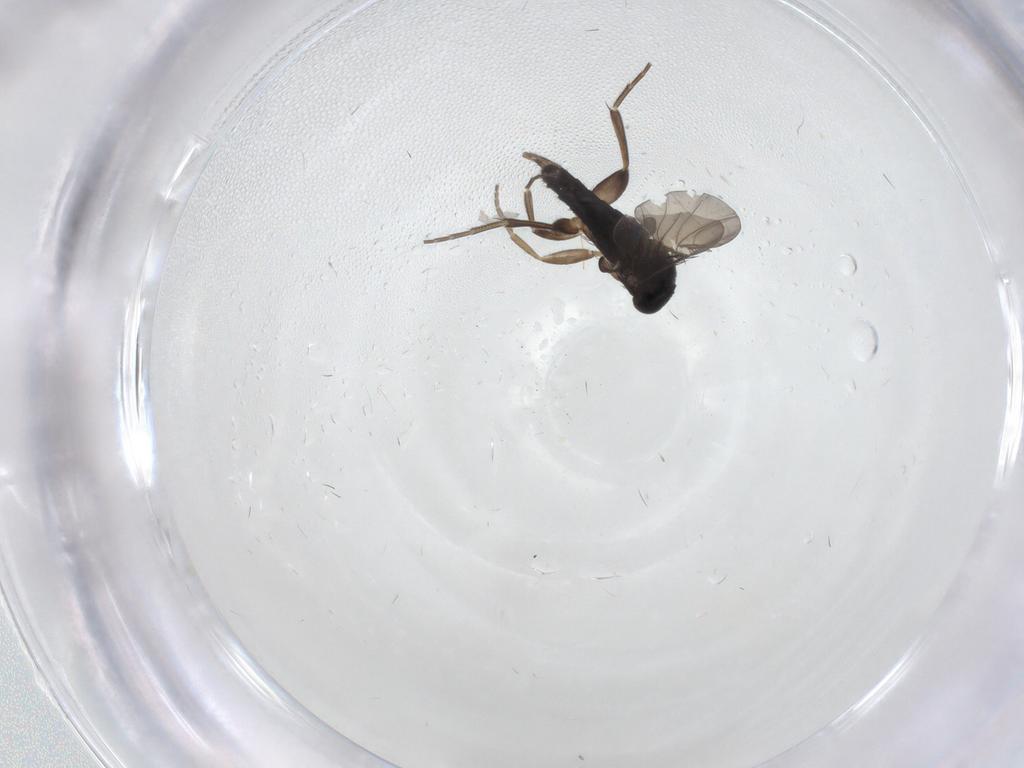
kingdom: Animalia
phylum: Arthropoda
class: Insecta
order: Diptera
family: Phoridae
